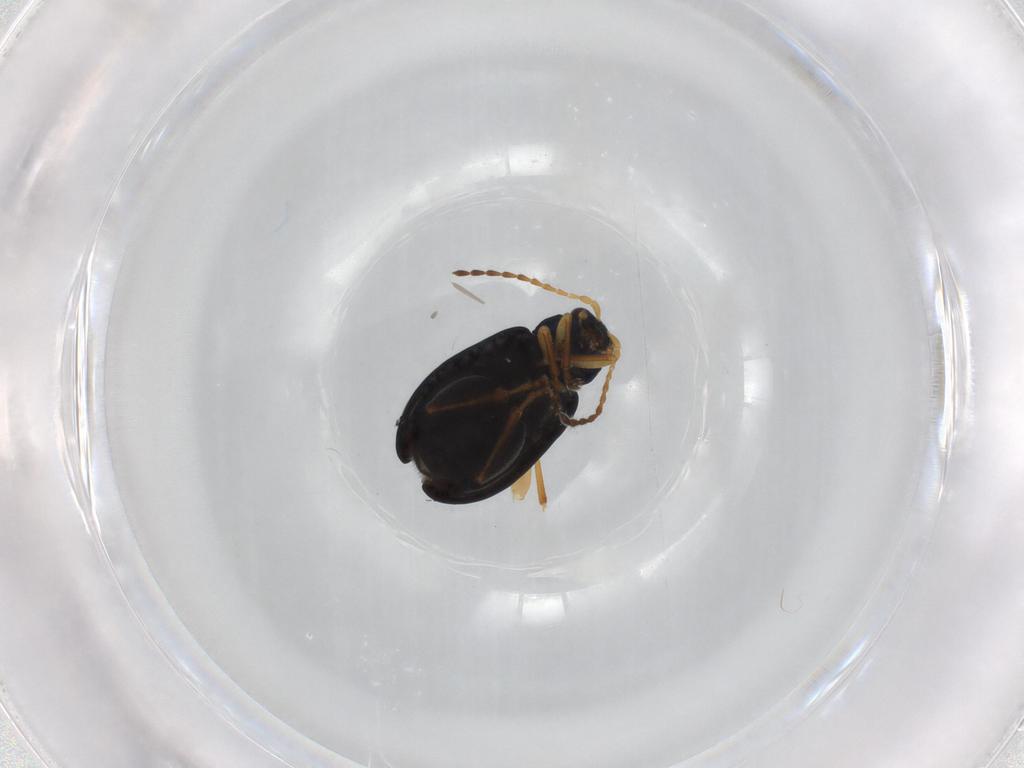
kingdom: Animalia
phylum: Arthropoda
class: Insecta
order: Coleoptera
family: Chrysomelidae
